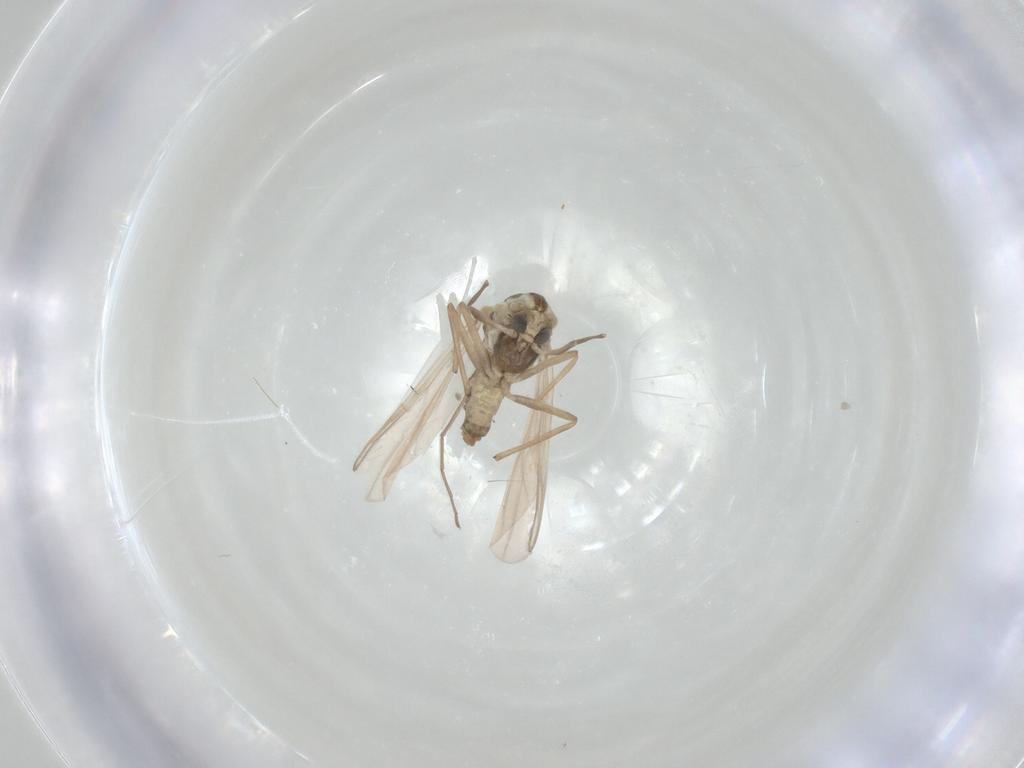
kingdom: Animalia
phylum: Arthropoda
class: Insecta
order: Diptera
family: Chironomidae
